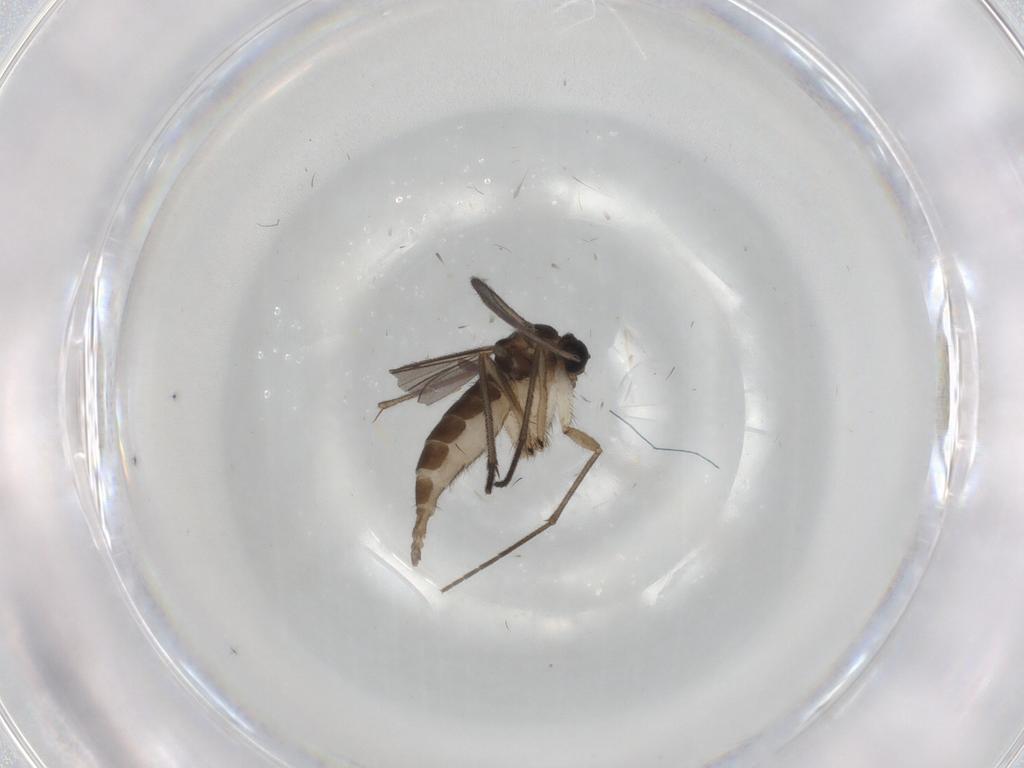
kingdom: Animalia
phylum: Arthropoda
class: Insecta
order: Diptera
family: Sciaridae
